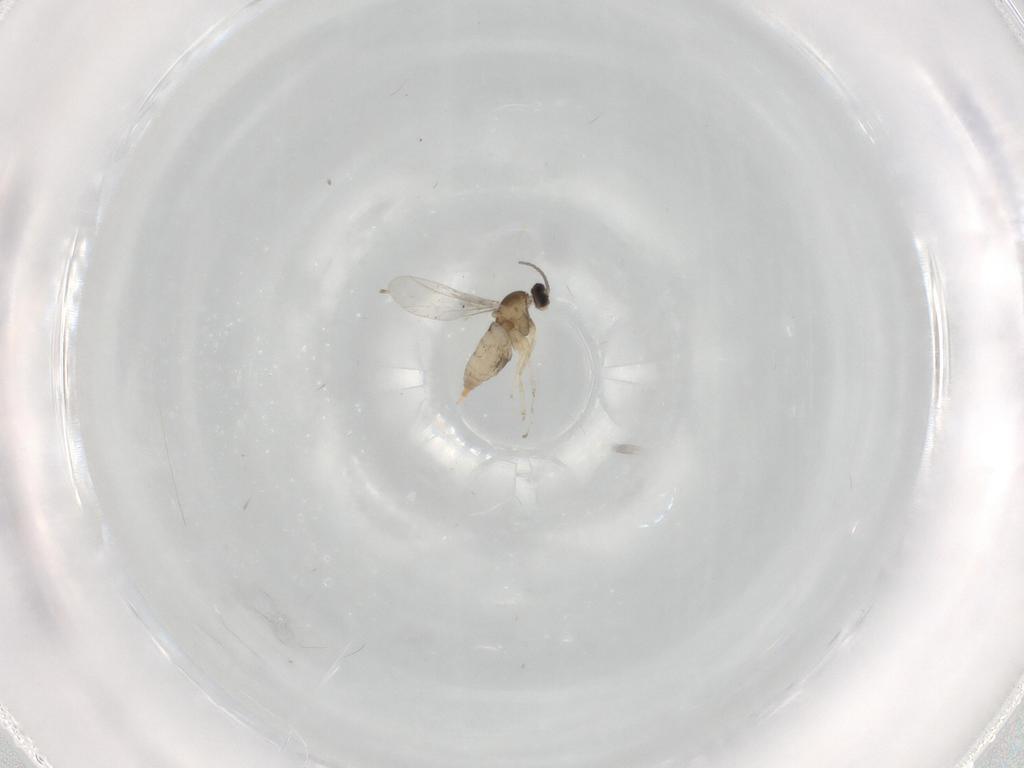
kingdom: Animalia
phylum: Arthropoda
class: Insecta
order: Diptera
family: Cecidomyiidae
